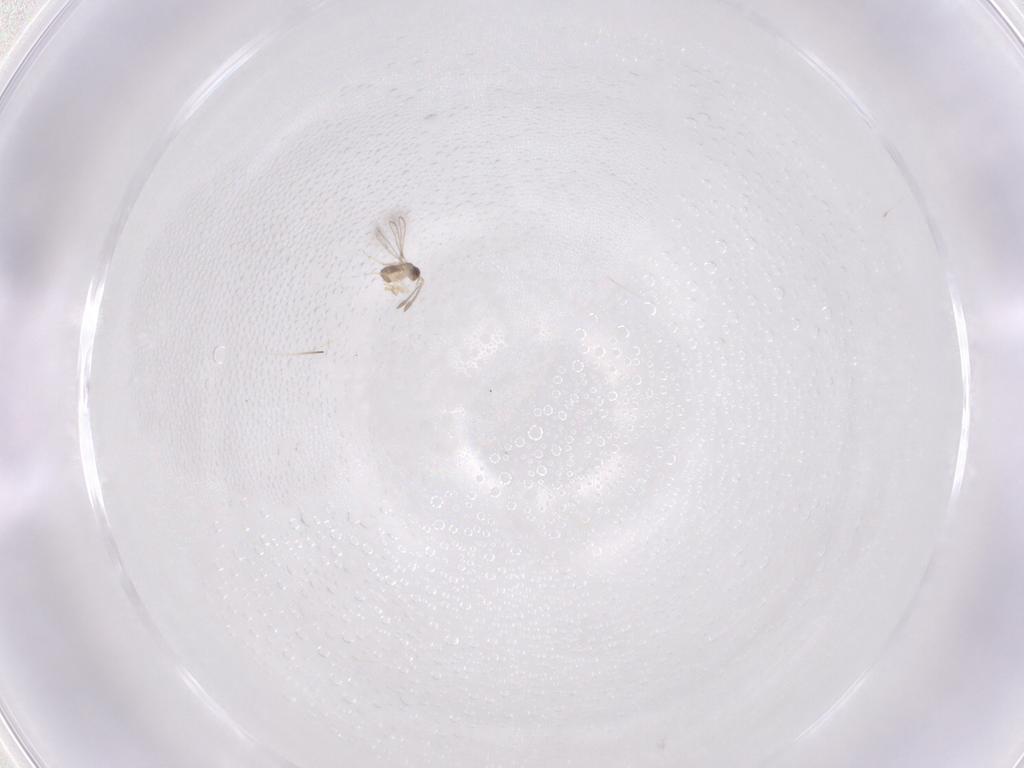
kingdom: Animalia
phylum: Arthropoda
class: Insecta
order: Hymenoptera
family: Mymaridae
